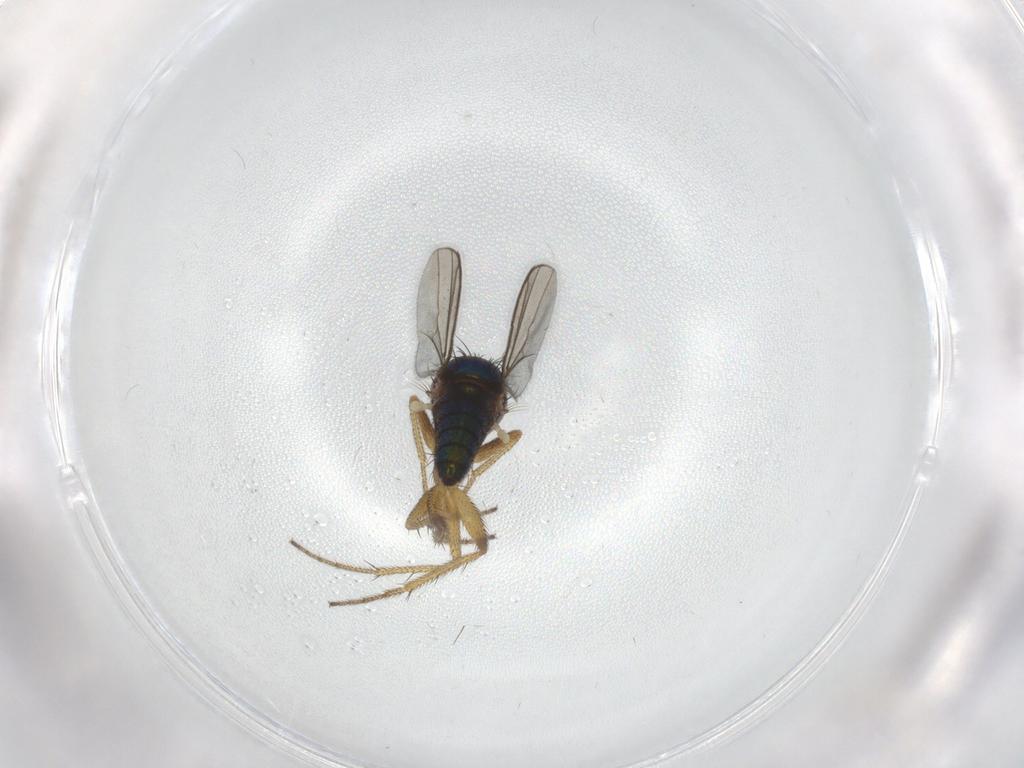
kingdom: Animalia
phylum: Arthropoda
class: Insecta
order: Diptera
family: Dolichopodidae
